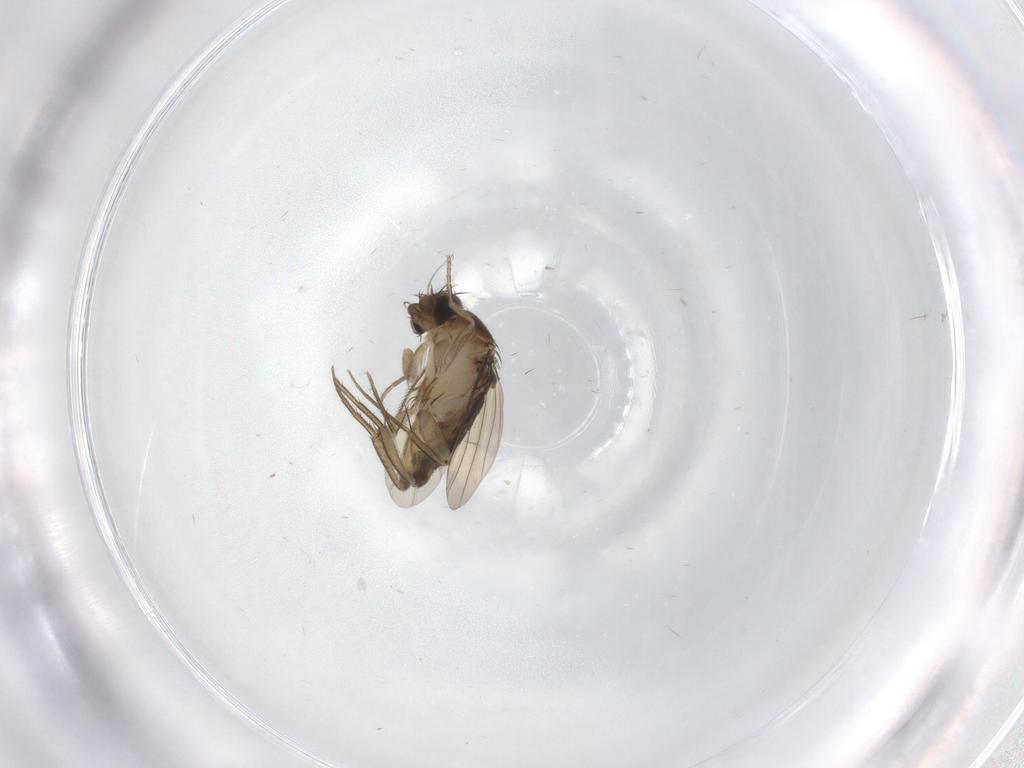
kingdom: Animalia
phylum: Arthropoda
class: Insecta
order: Diptera
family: Phoridae
